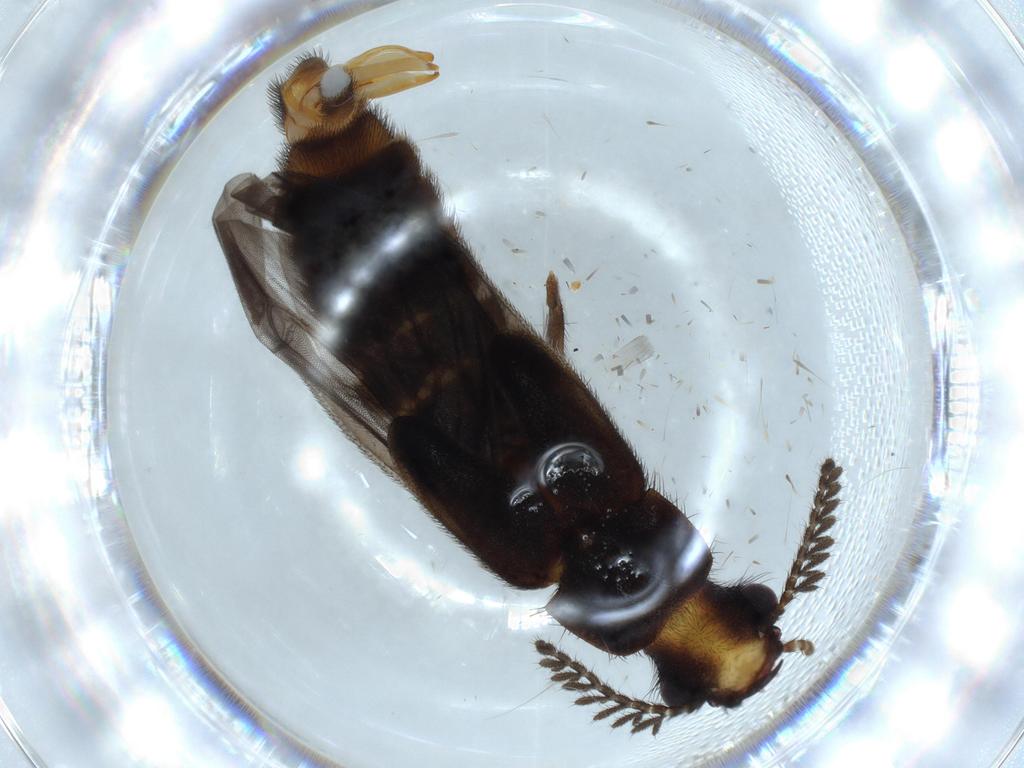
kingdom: Animalia
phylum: Arthropoda
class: Insecta
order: Coleoptera
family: Phengodidae
